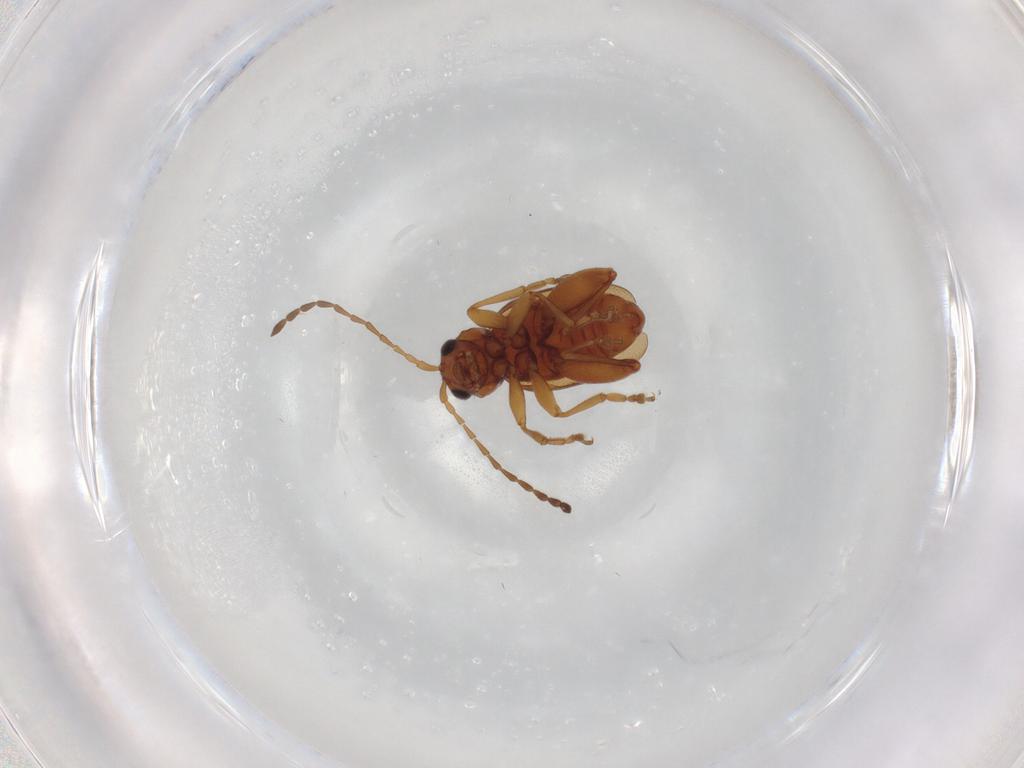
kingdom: Animalia
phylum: Arthropoda
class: Insecta
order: Coleoptera
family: Chrysomelidae
